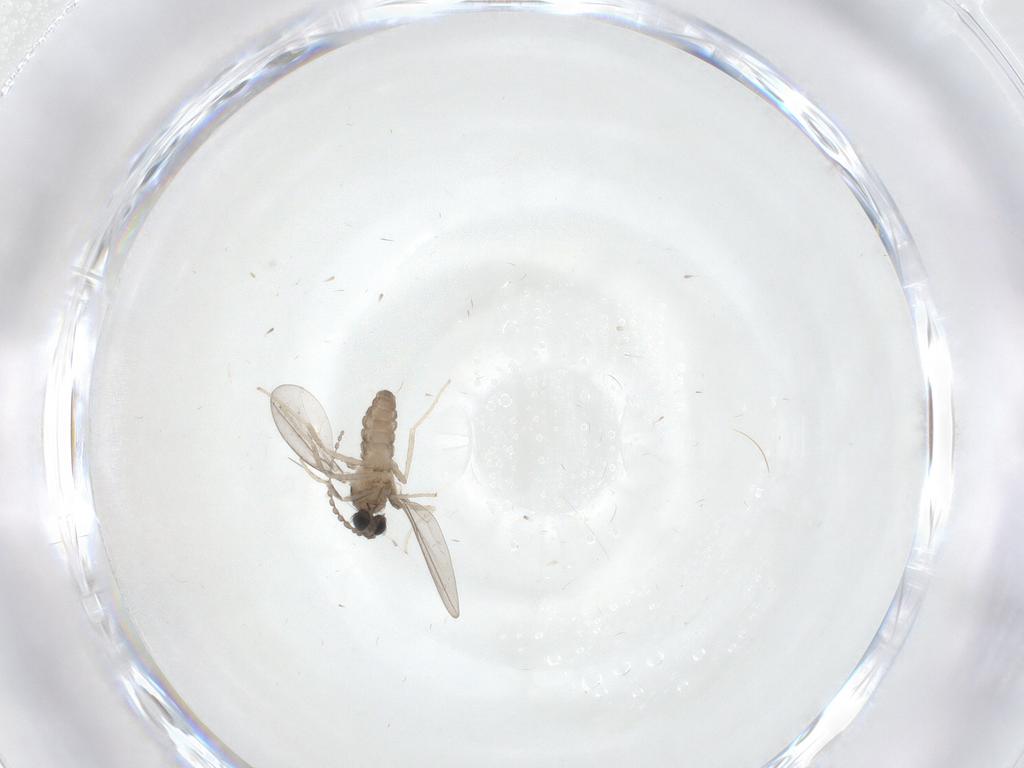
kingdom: Animalia
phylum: Arthropoda
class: Insecta
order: Diptera
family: Cecidomyiidae
